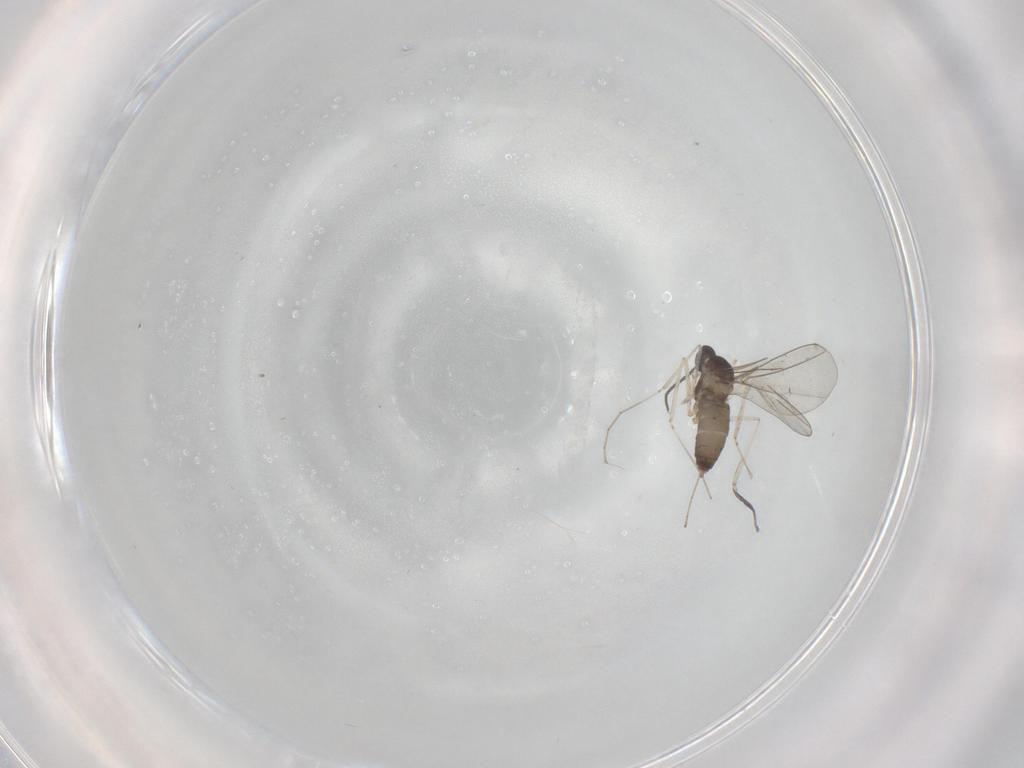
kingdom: Animalia
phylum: Arthropoda
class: Insecta
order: Diptera
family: Cecidomyiidae
